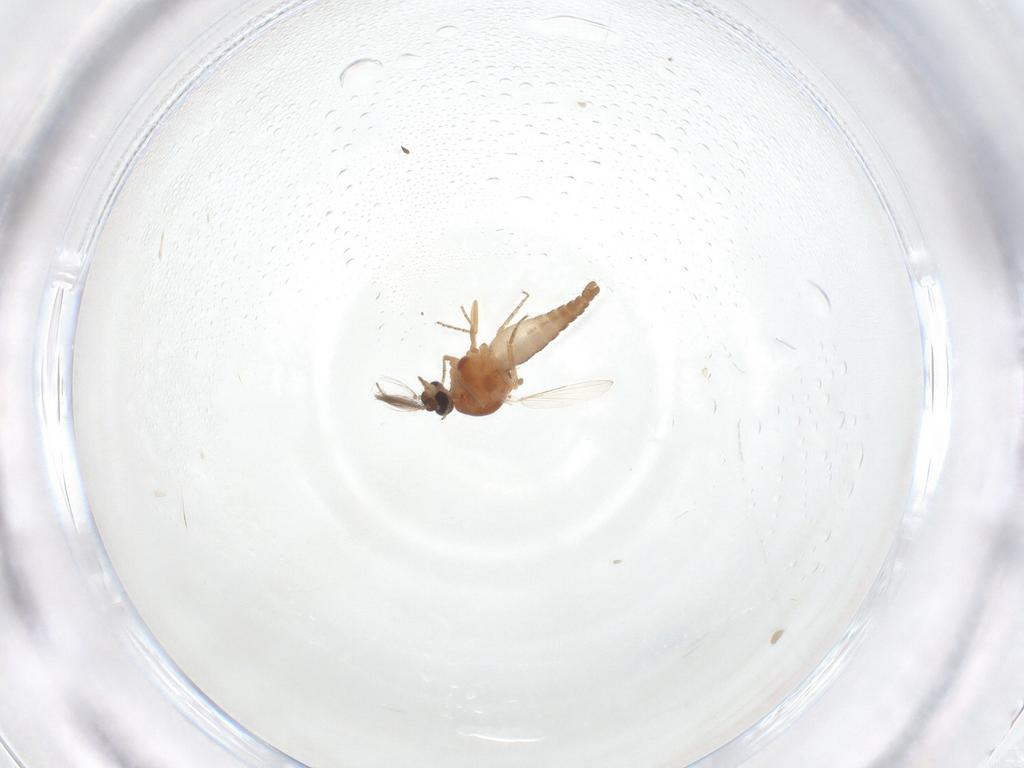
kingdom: Animalia
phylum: Arthropoda
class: Insecta
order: Diptera
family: Ceratopogonidae
